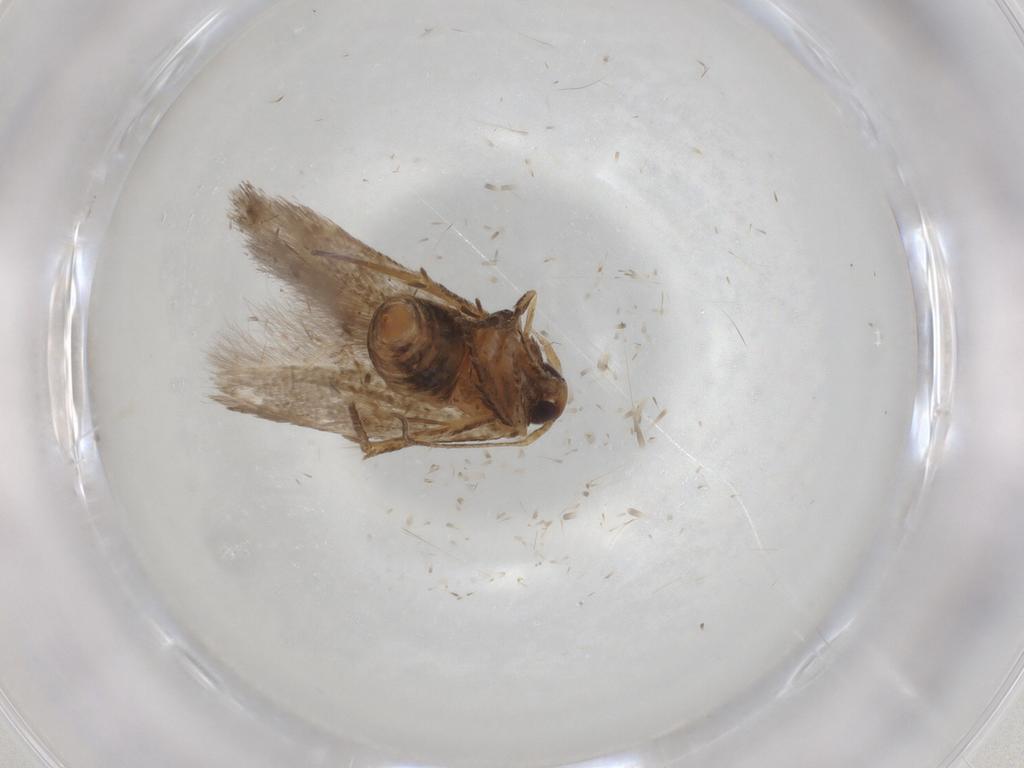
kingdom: Animalia
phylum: Arthropoda
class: Insecta
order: Lepidoptera
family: Cosmopterigidae
